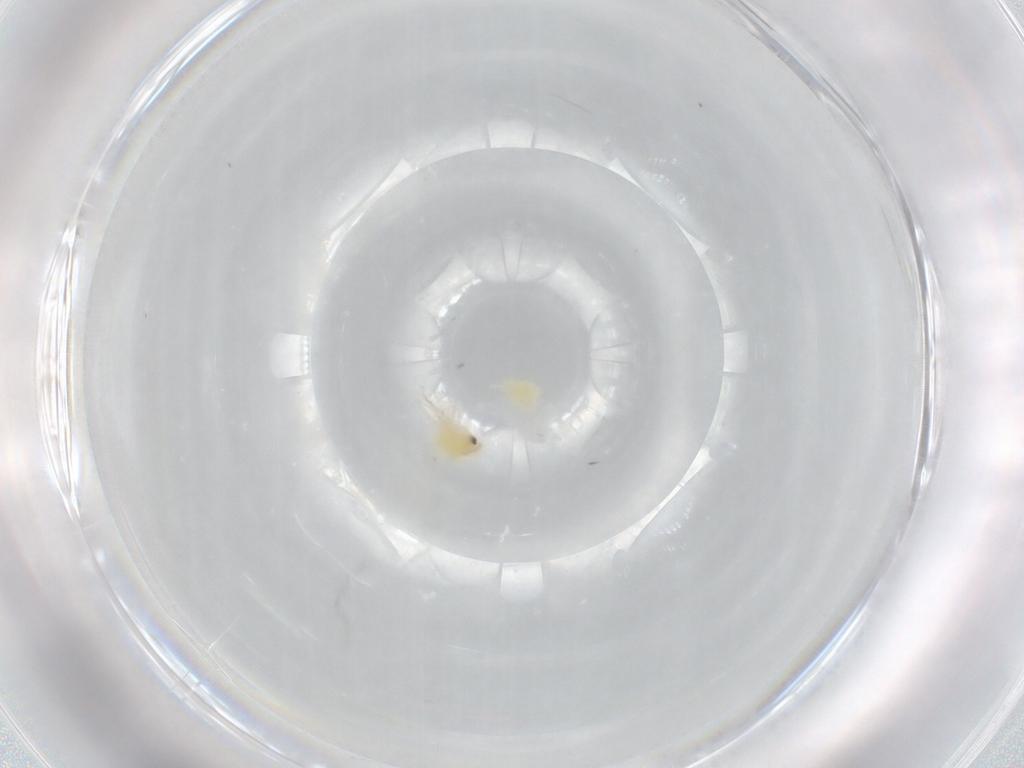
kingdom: Animalia
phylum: Arthropoda
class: Insecta
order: Hemiptera
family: Aleyrodidae
